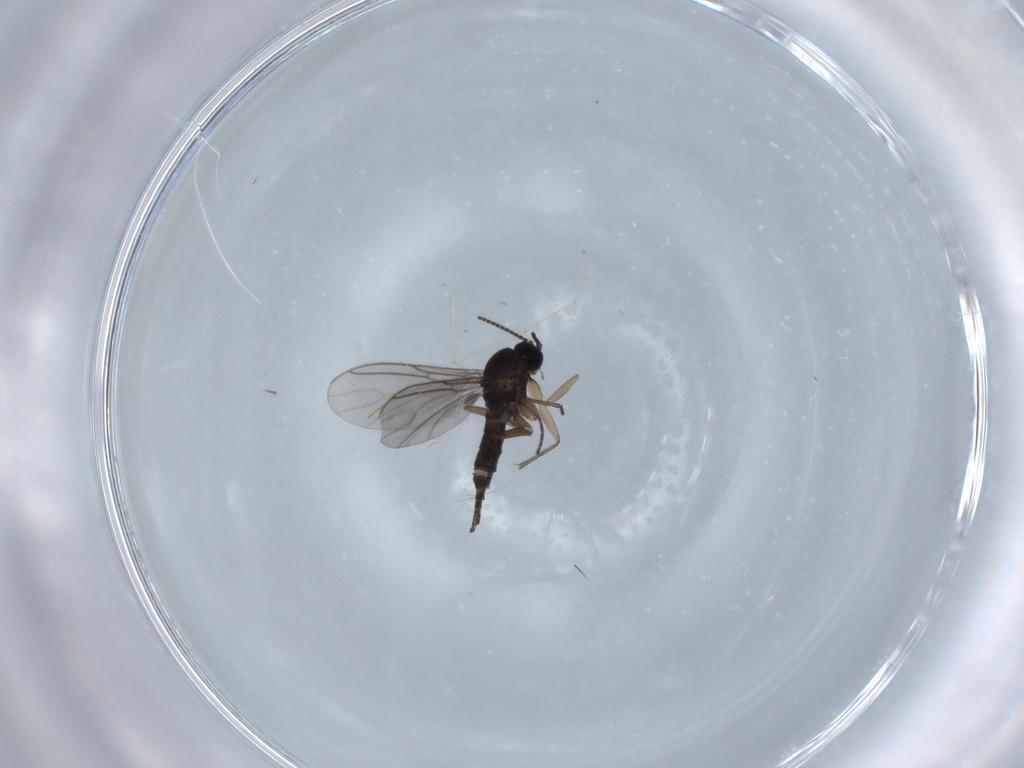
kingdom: Animalia
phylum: Arthropoda
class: Insecta
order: Diptera
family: Sciaridae
